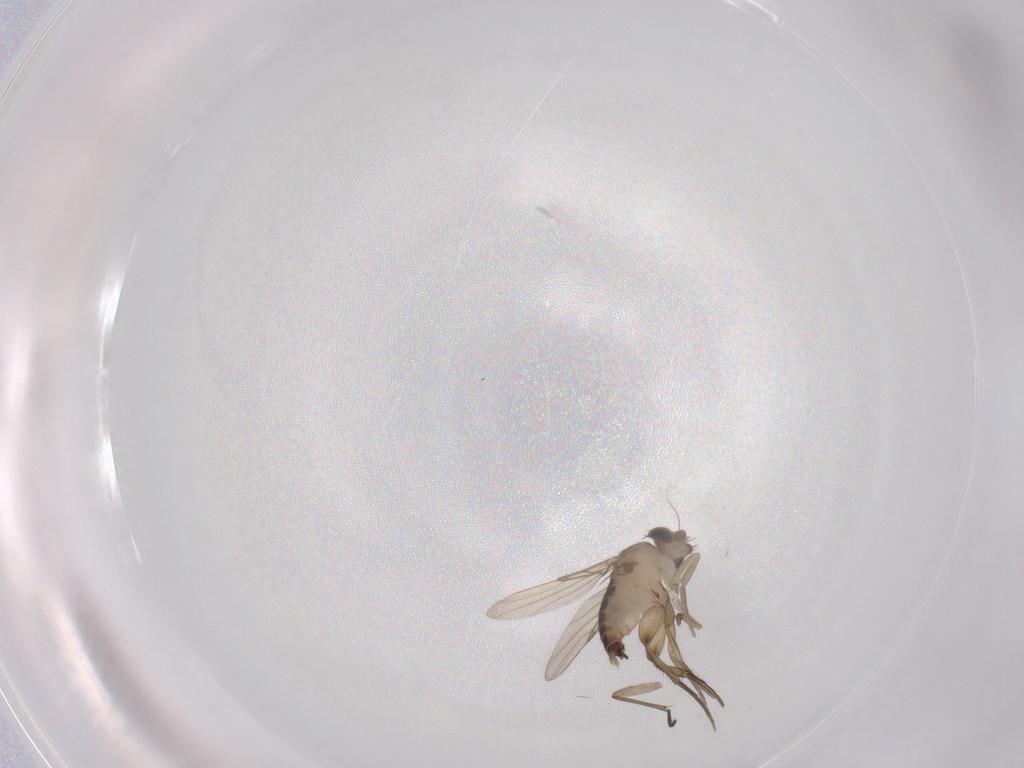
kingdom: Animalia
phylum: Arthropoda
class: Insecta
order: Diptera
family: Phoridae
